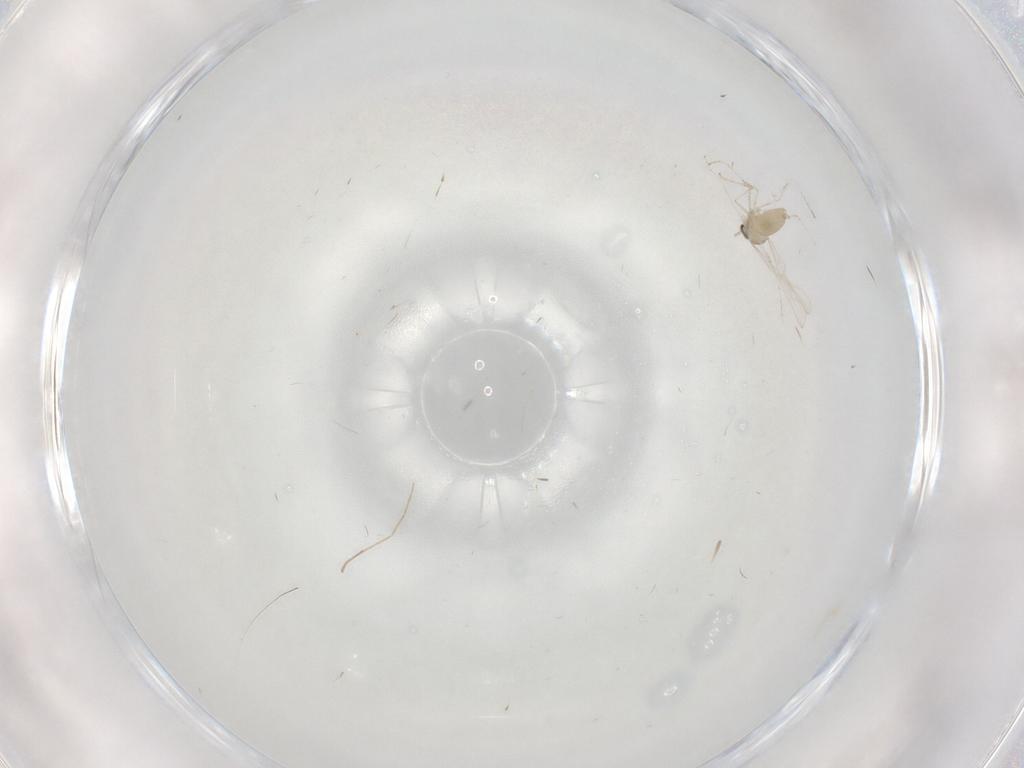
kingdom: Animalia
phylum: Arthropoda
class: Insecta
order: Diptera
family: Cecidomyiidae
